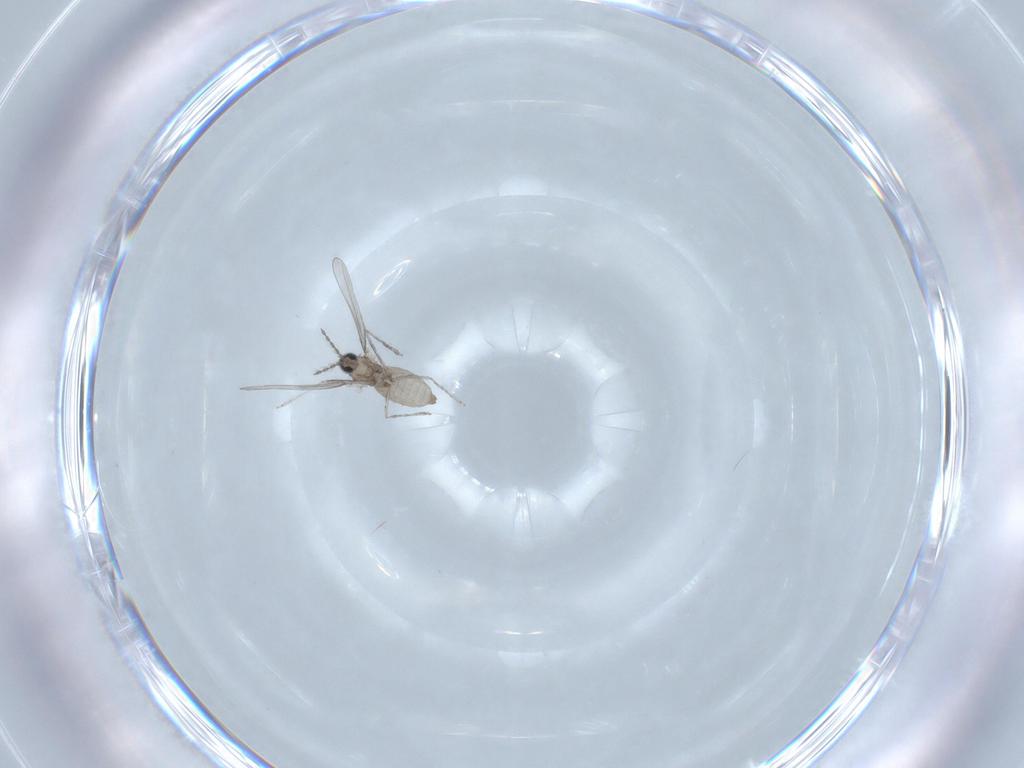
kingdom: Animalia
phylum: Arthropoda
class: Insecta
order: Diptera
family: Cecidomyiidae
